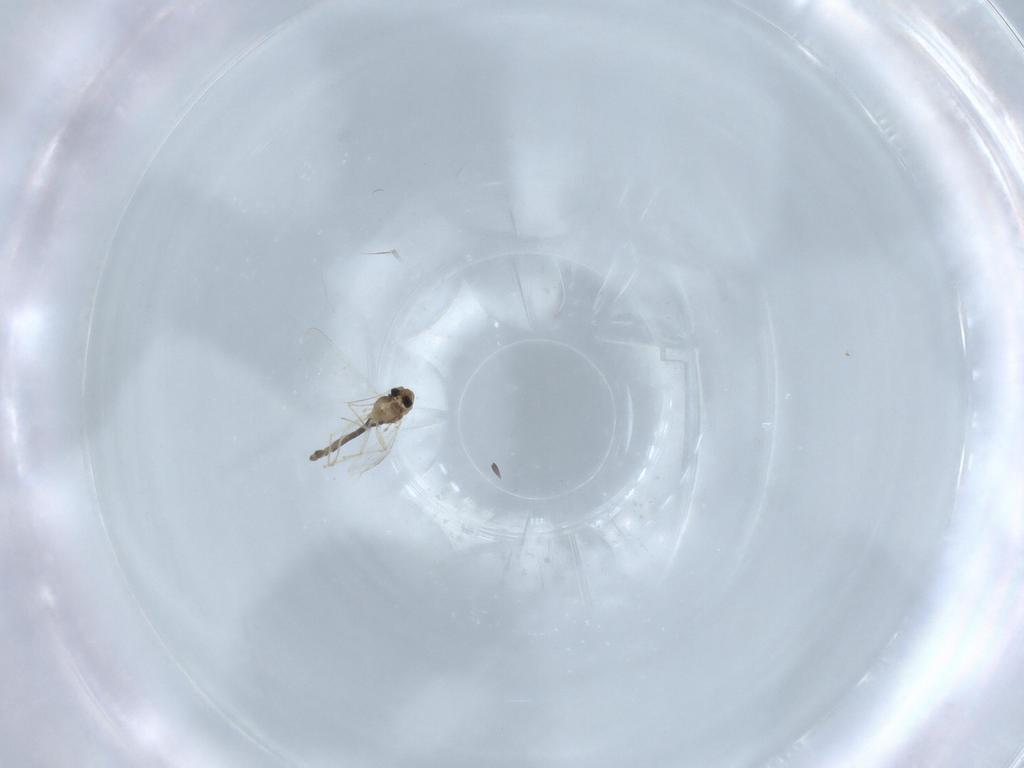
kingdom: Animalia
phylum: Arthropoda
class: Insecta
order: Diptera
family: Chironomidae
